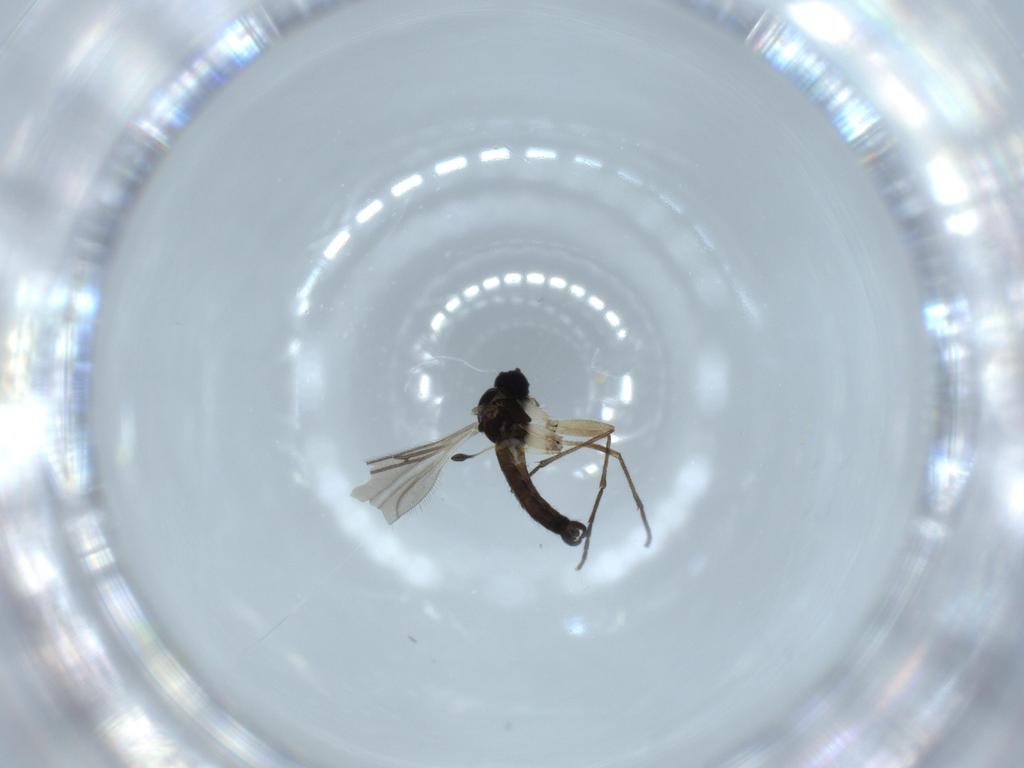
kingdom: Animalia
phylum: Arthropoda
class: Insecta
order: Diptera
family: Sciaridae
